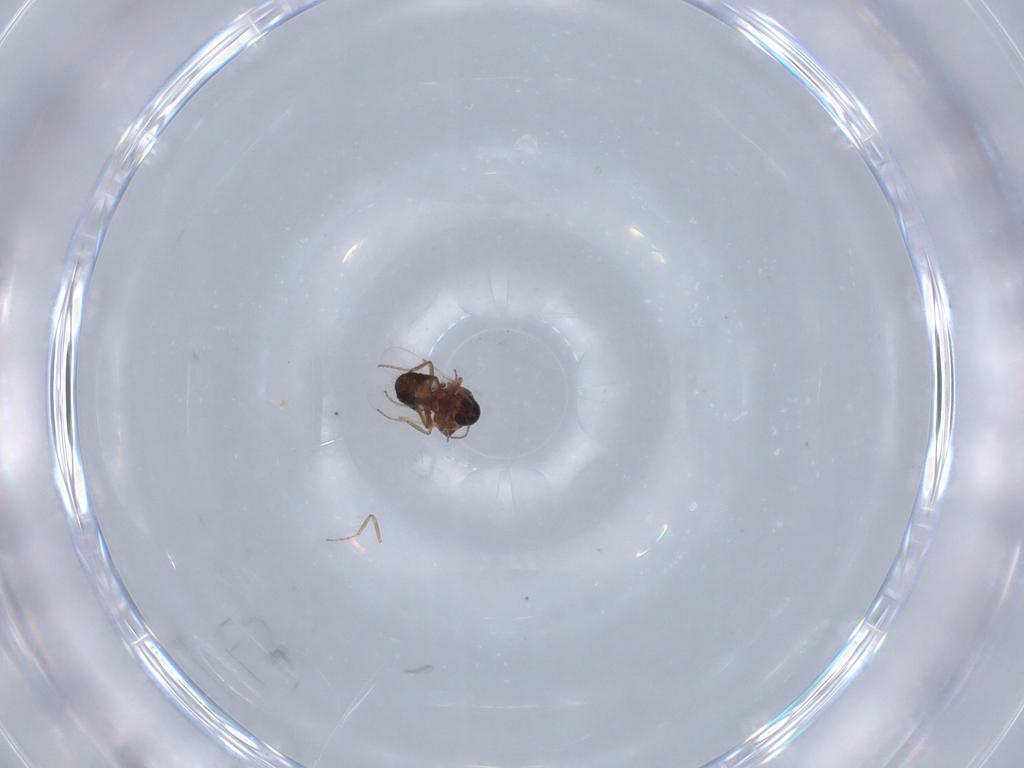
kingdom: Animalia
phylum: Arthropoda
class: Insecta
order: Diptera
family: Ceratopogonidae
